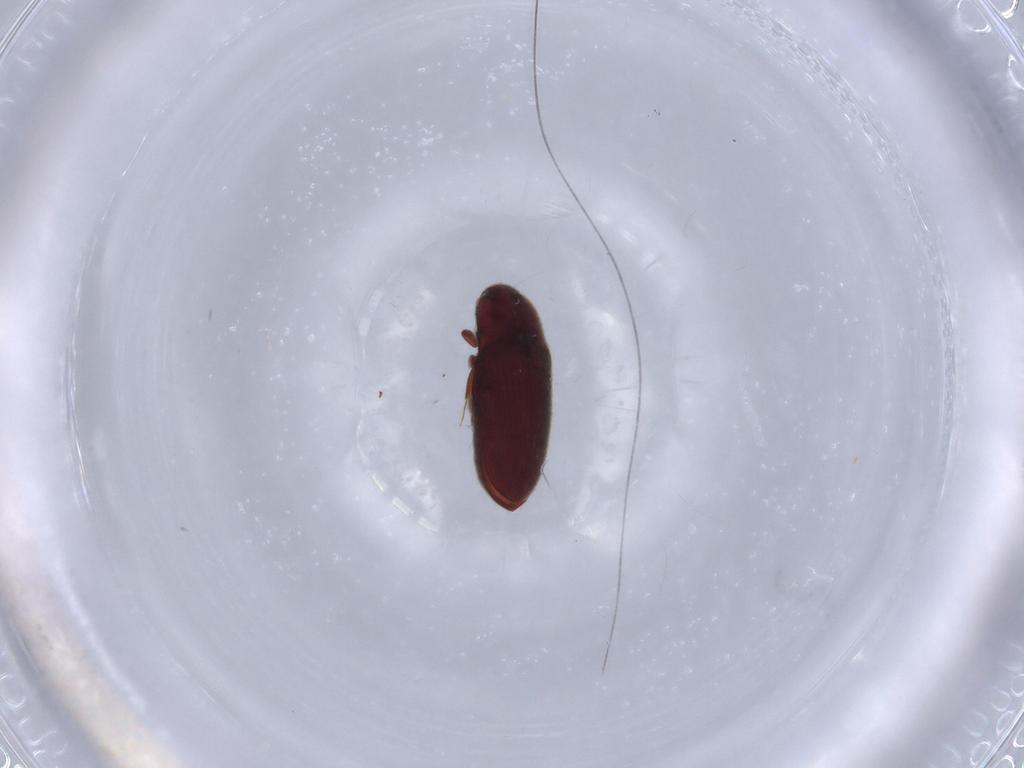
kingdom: Animalia
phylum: Arthropoda
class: Insecta
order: Coleoptera
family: Throscidae
